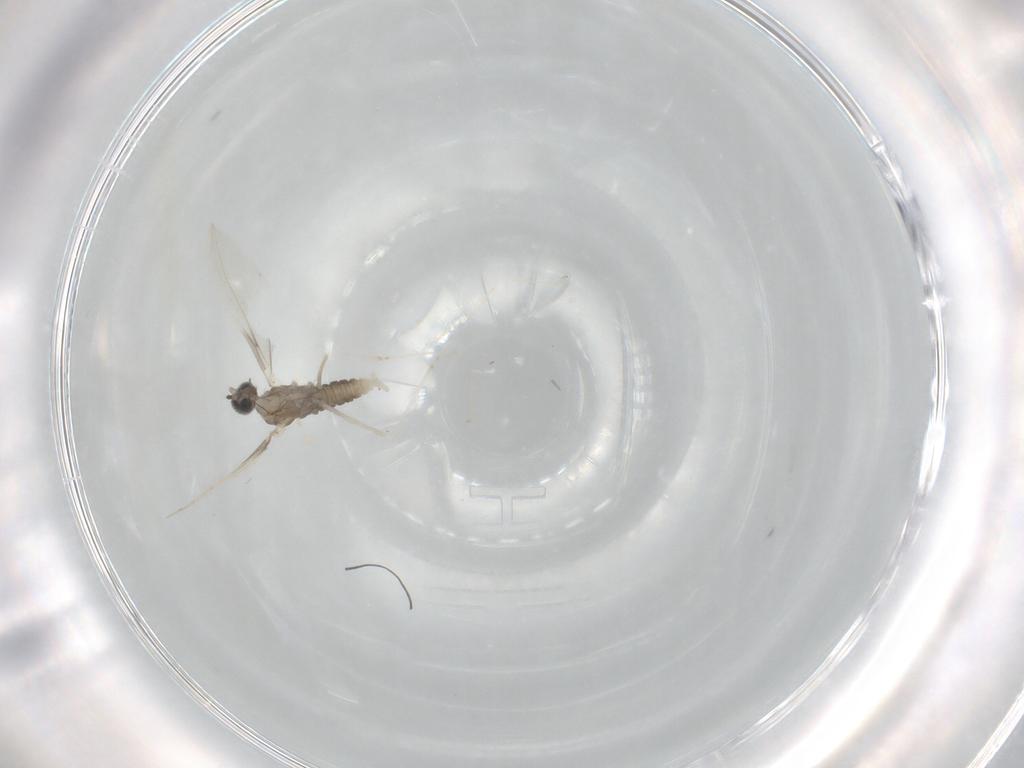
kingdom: Animalia
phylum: Arthropoda
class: Insecta
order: Diptera
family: Cecidomyiidae
